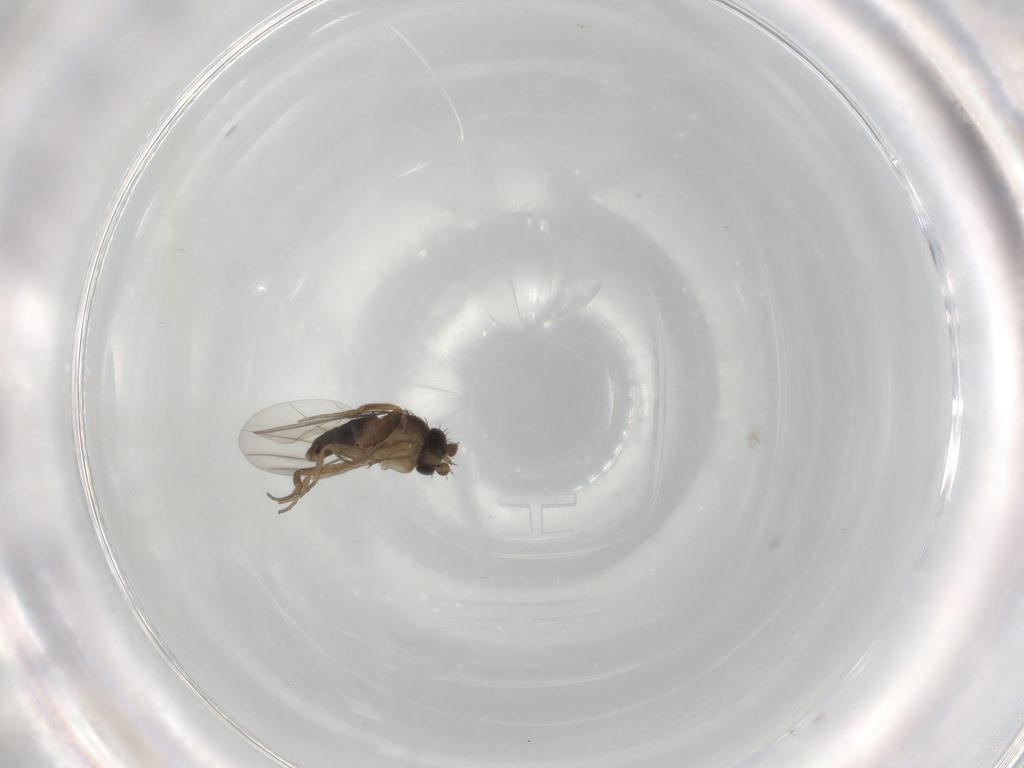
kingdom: Animalia
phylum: Arthropoda
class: Insecta
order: Diptera
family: Phoridae
